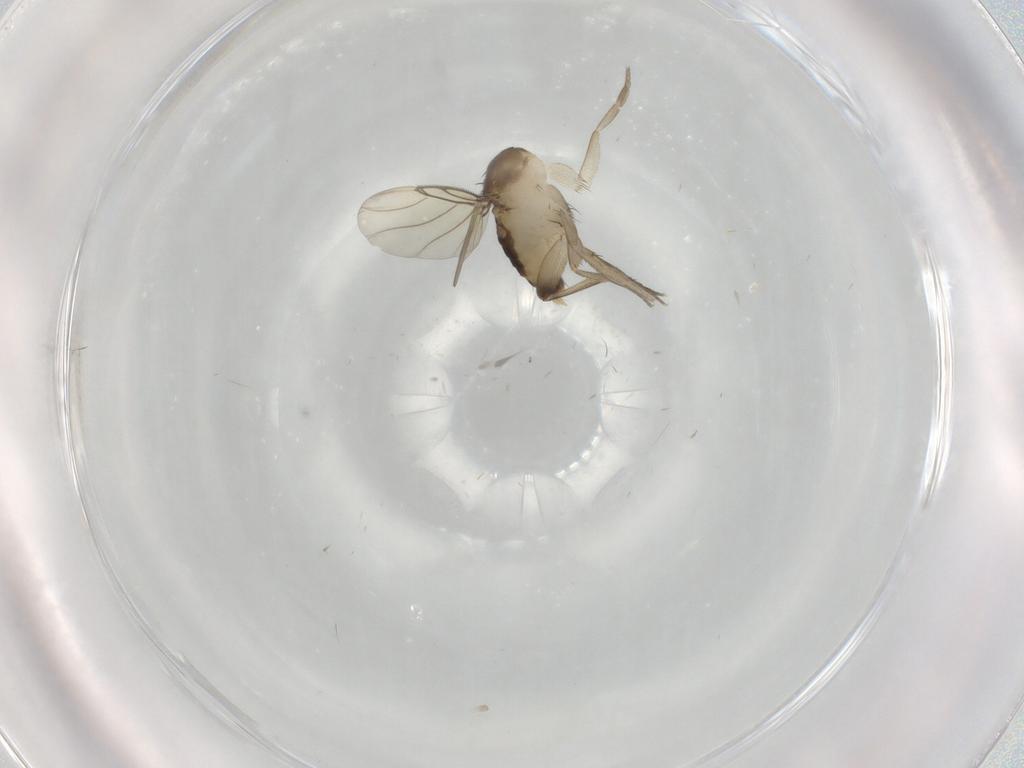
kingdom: Animalia
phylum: Arthropoda
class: Insecta
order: Diptera
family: Phoridae
